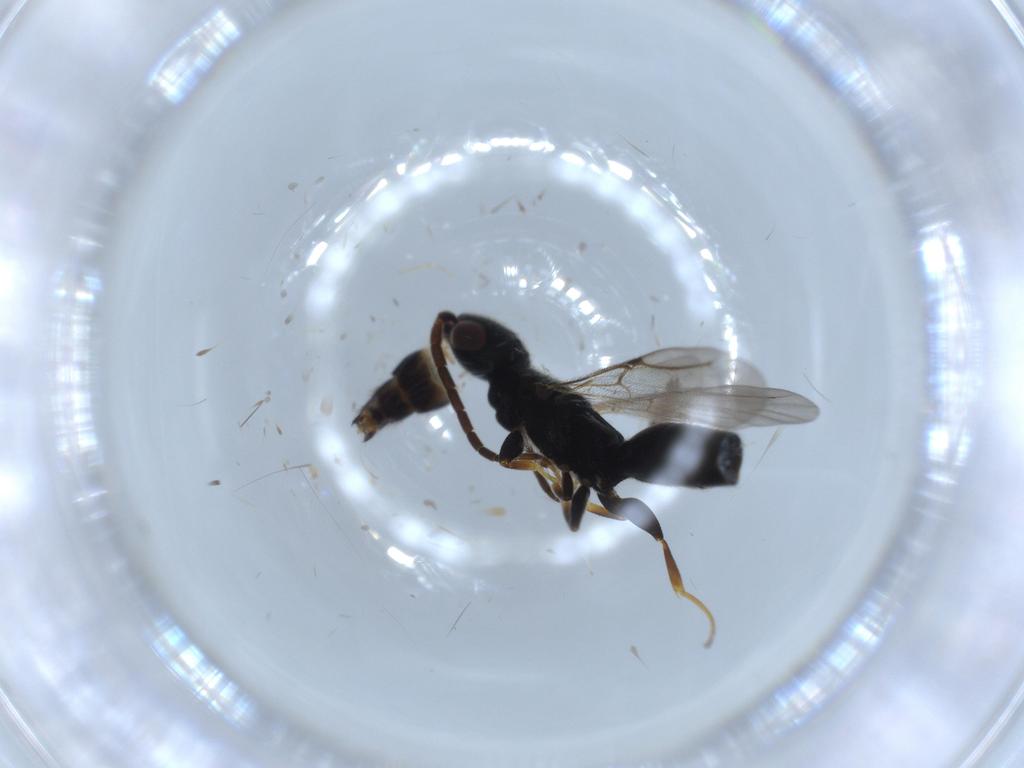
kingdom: Animalia
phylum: Arthropoda
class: Insecta
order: Hymenoptera
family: Bethylidae
